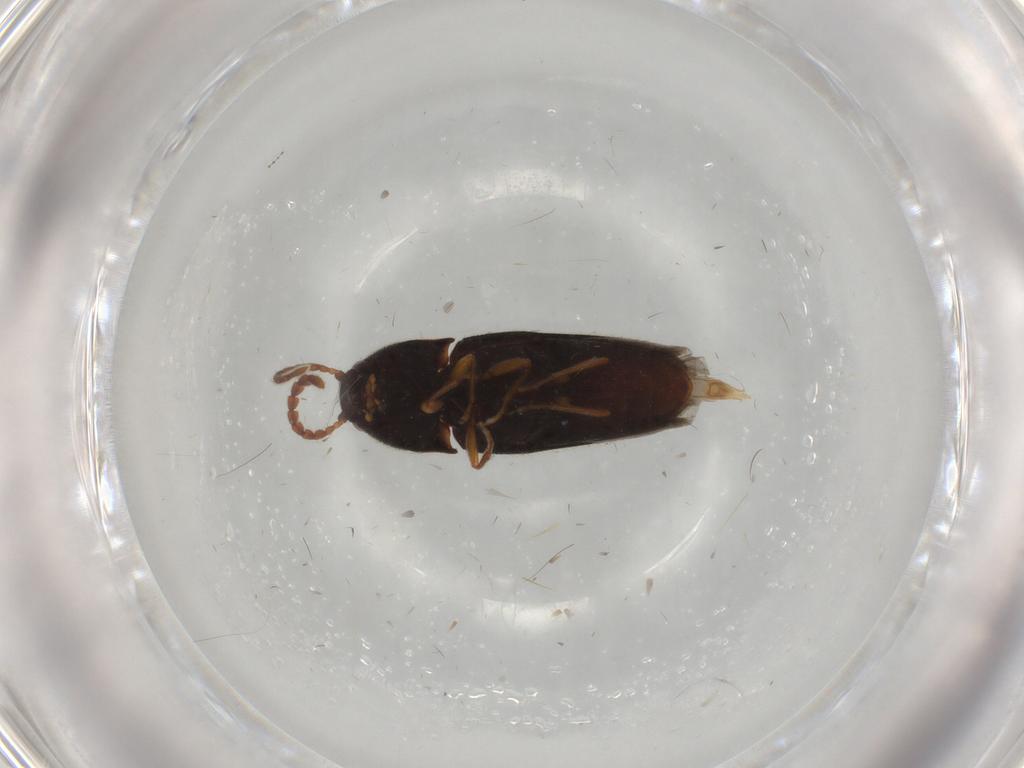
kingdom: Animalia
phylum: Arthropoda
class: Insecta
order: Coleoptera
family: Elateridae
